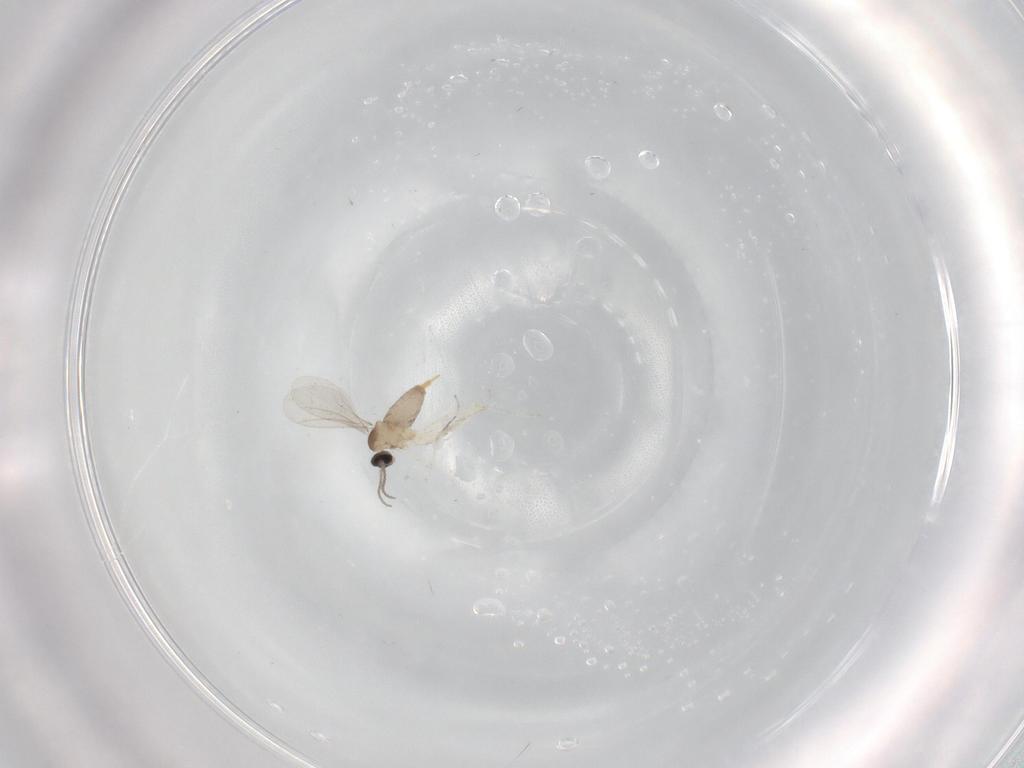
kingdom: Animalia
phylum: Arthropoda
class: Insecta
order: Diptera
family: Cecidomyiidae
